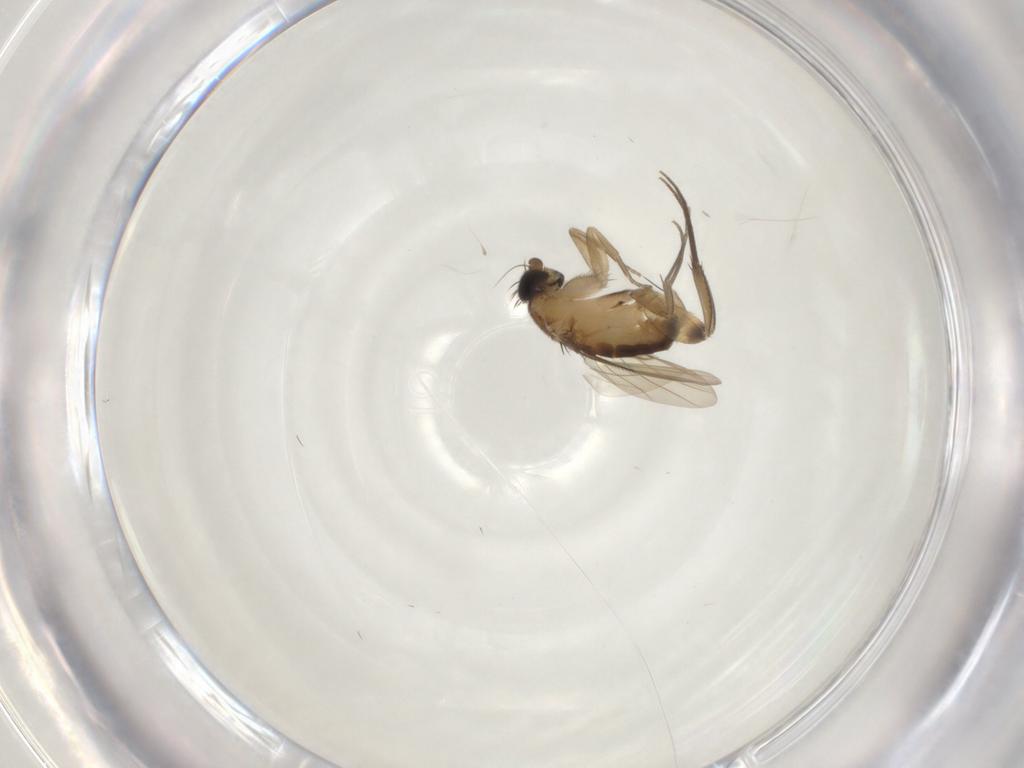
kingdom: Animalia
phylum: Arthropoda
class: Insecta
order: Diptera
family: Phoridae
